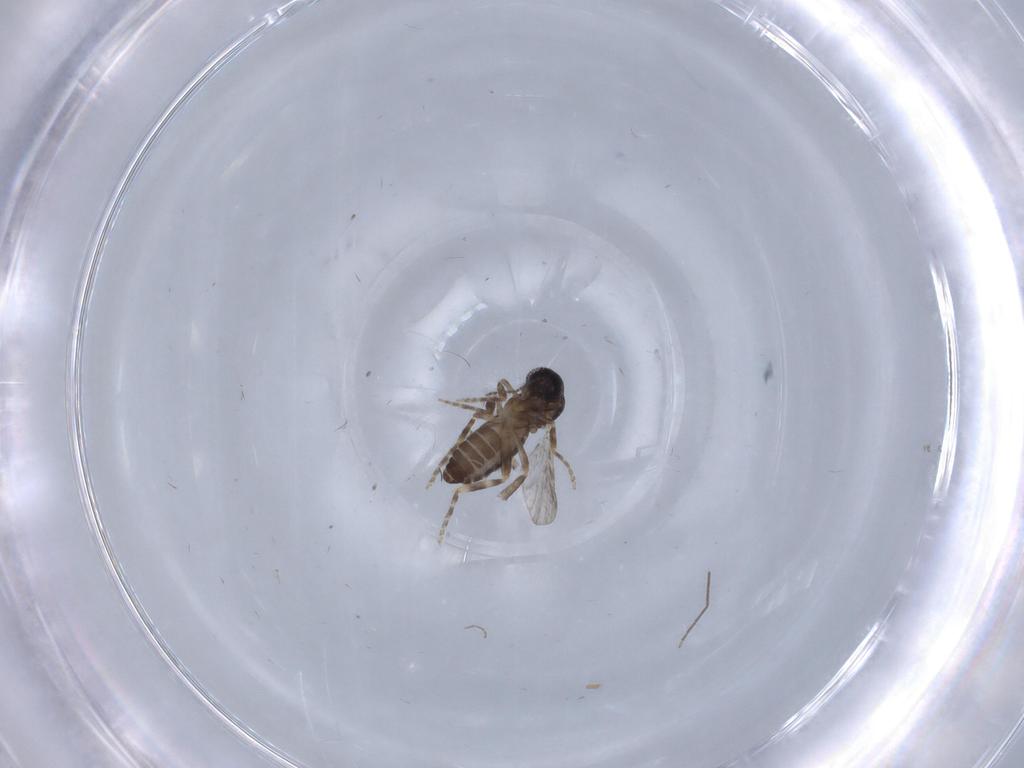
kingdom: Animalia
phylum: Arthropoda
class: Insecta
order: Diptera
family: Ceratopogonidae
